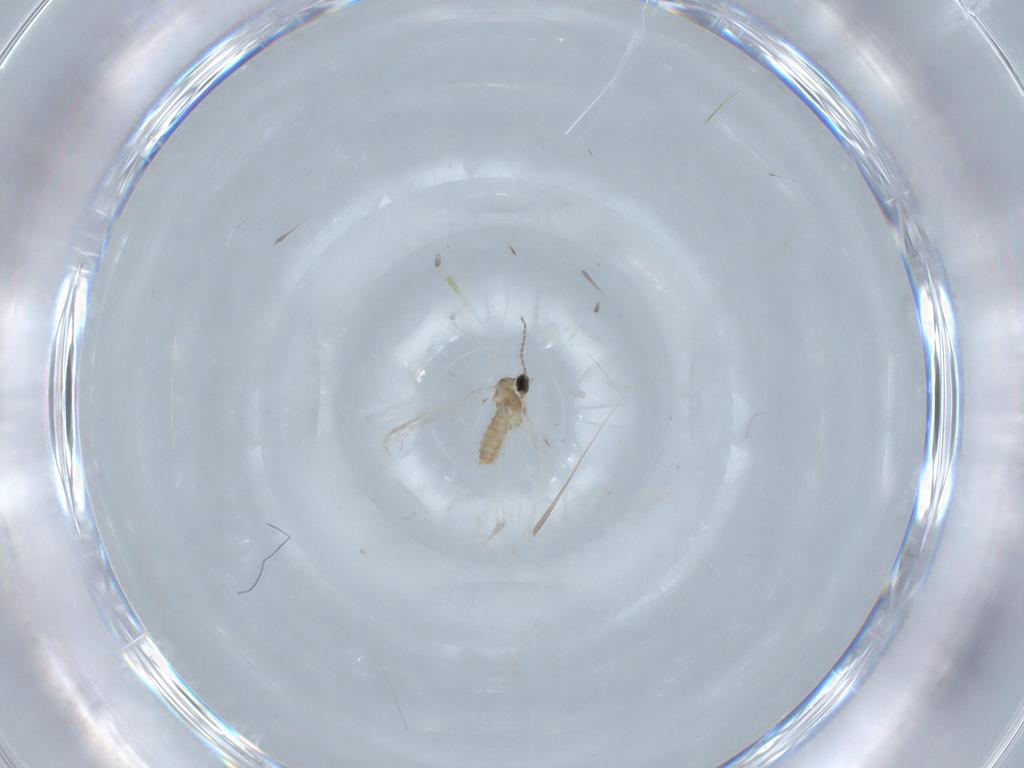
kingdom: Animalia
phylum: Arthropoda
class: Insecta
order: Diptera
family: Cecidomyiidae
